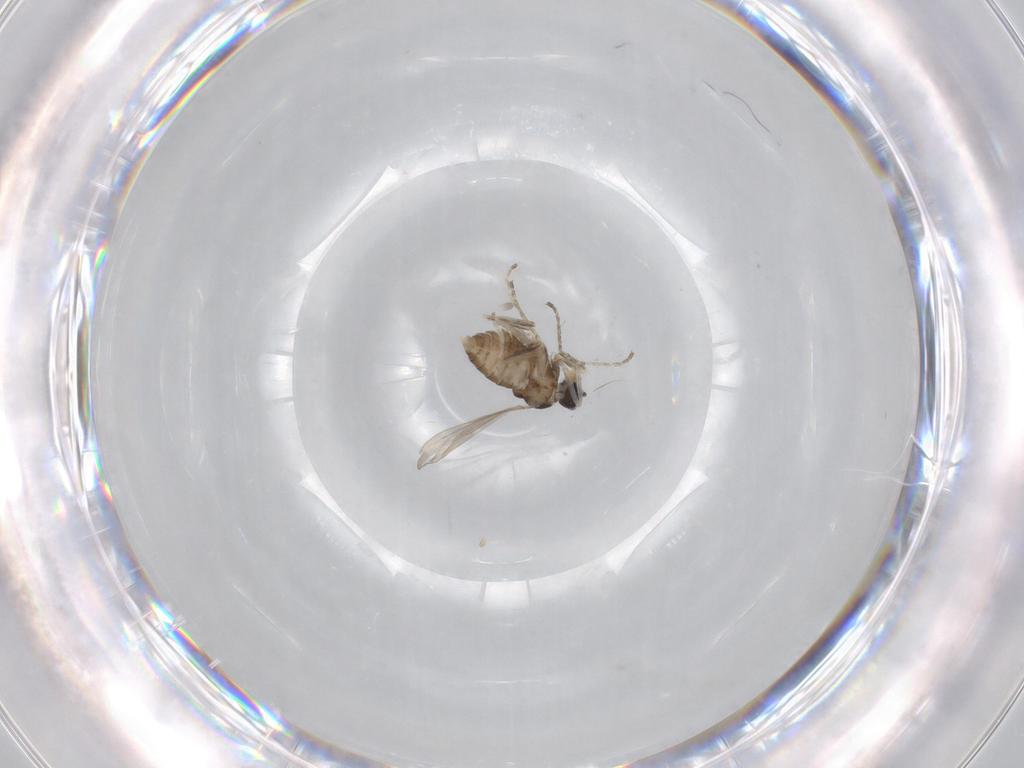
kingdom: Animalia
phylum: Arthropoda
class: Insecta
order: Diptera
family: Cecidomyiidae
